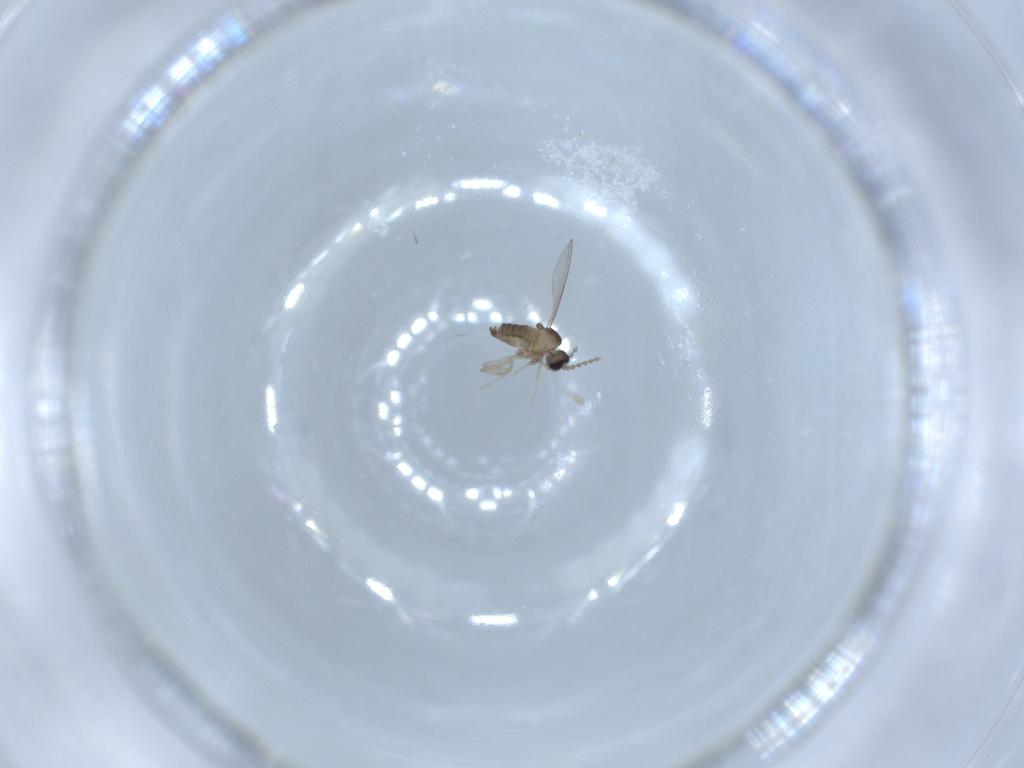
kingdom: Animalia
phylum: Arthropoda
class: Insecta
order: Diptera
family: Cecidomyiidae
